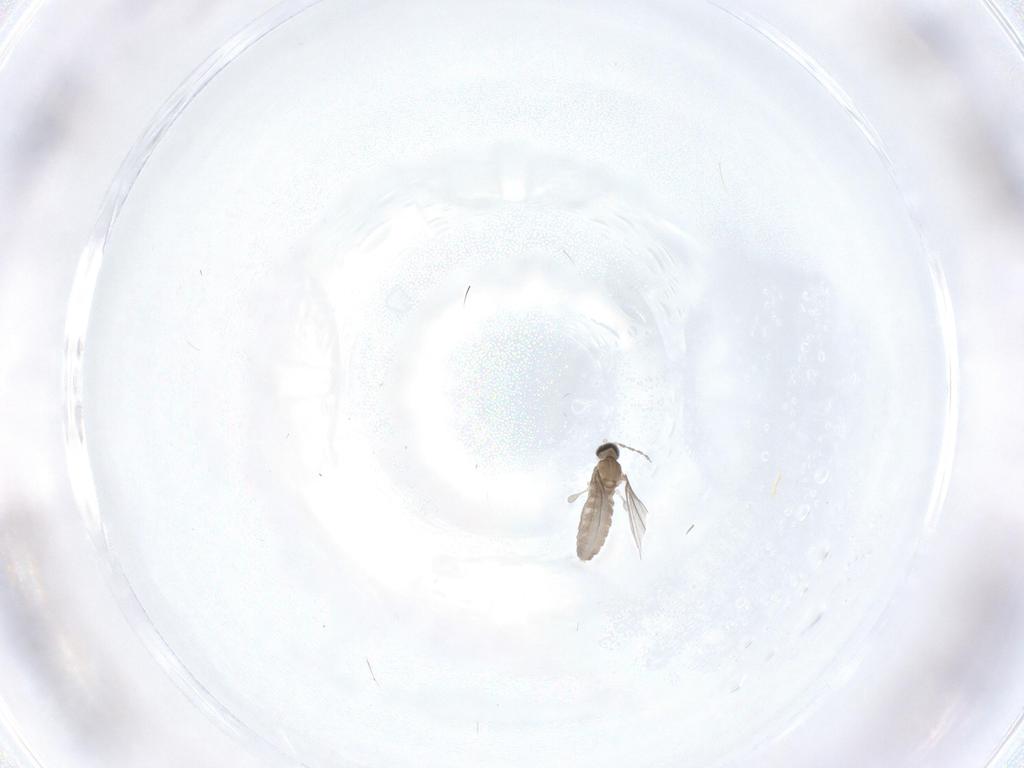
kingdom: Animalia
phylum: Arthropoda
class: Insecta
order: Diptera
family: Cecidomyiidae
